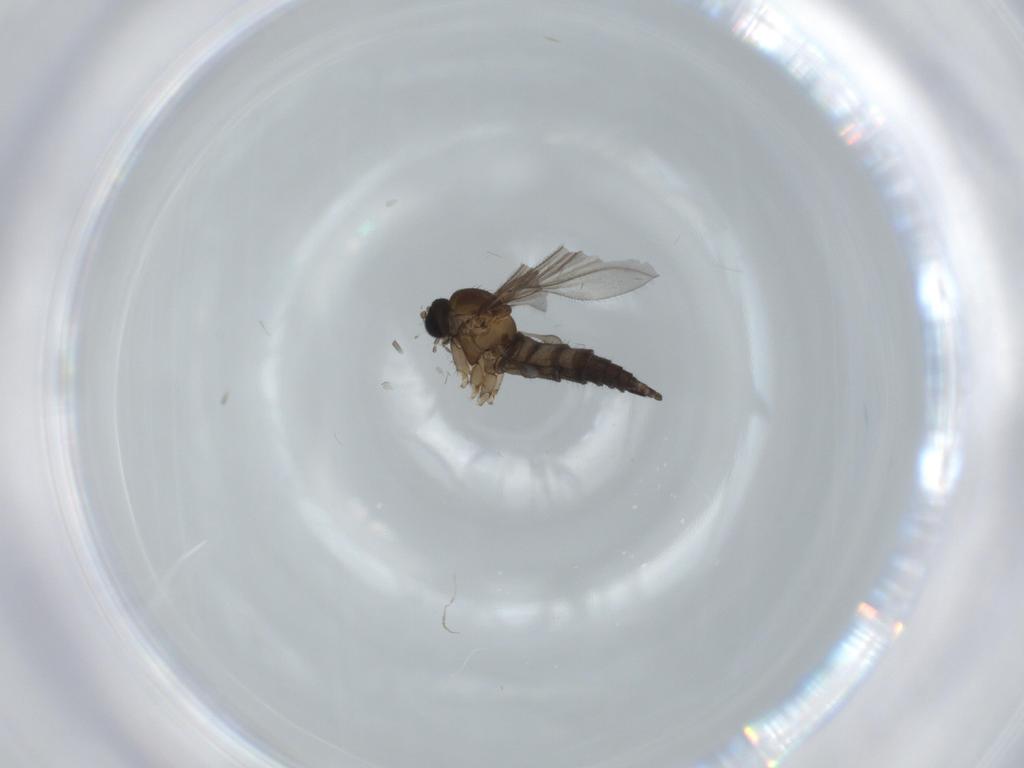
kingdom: Animalia
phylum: Arthropoda
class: Insecta
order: Diptera
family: Sciaridae
